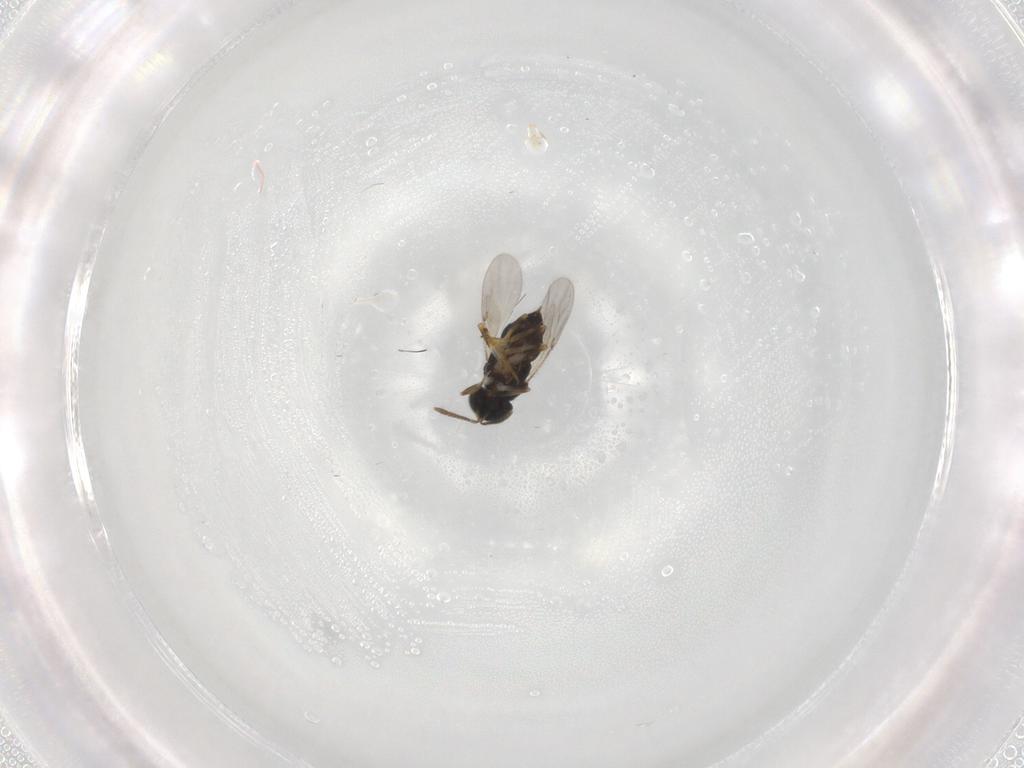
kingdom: Animalia
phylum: Arthropoda
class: Insecta
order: Hymenoptera
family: Encyrtidae
